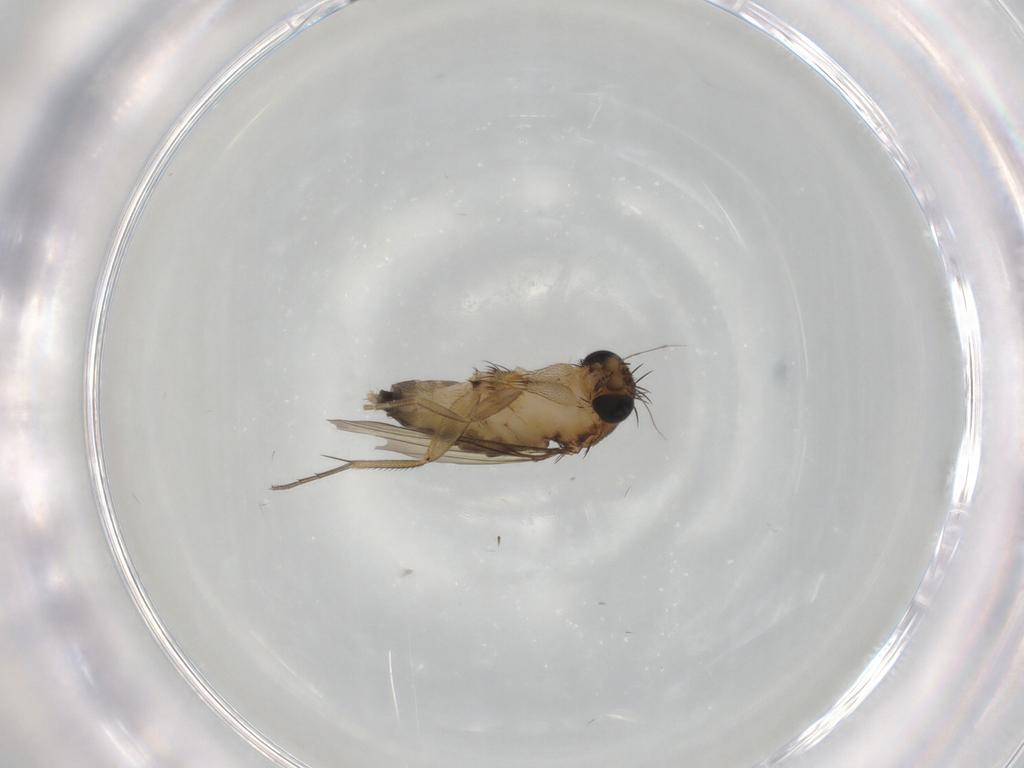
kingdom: Animalia
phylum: Arthropoda
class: Insecta
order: Diptera
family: Phoridae
